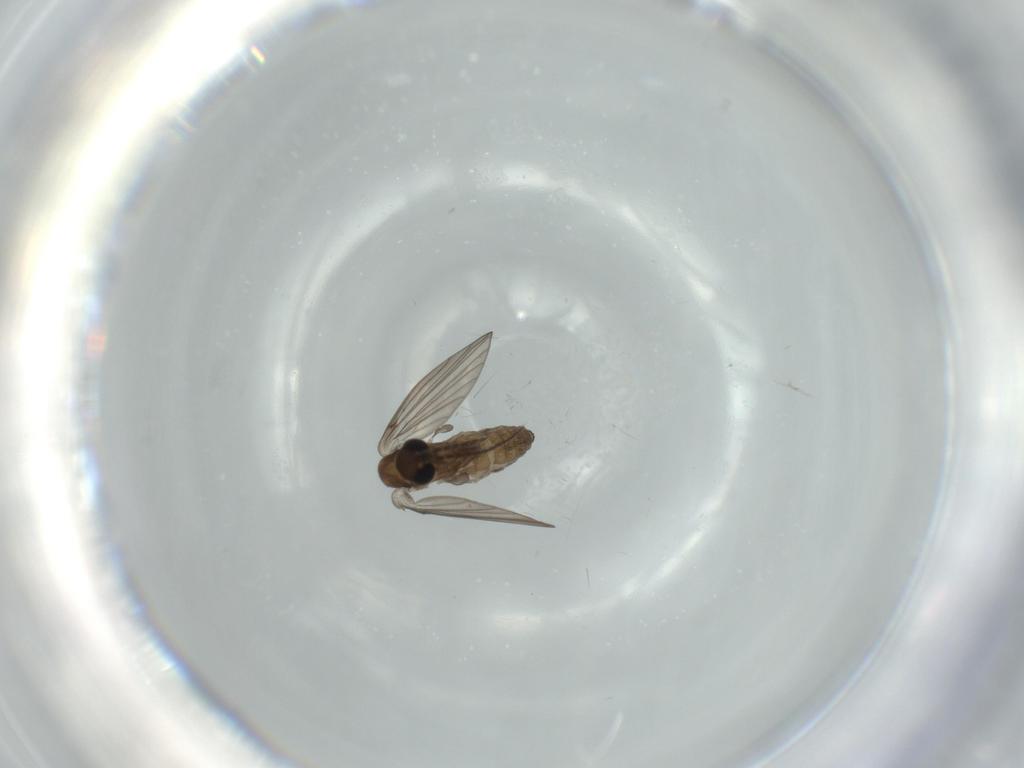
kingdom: Animalia
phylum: Arthropoda
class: Insecta
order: Diptera
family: Psychodidae
